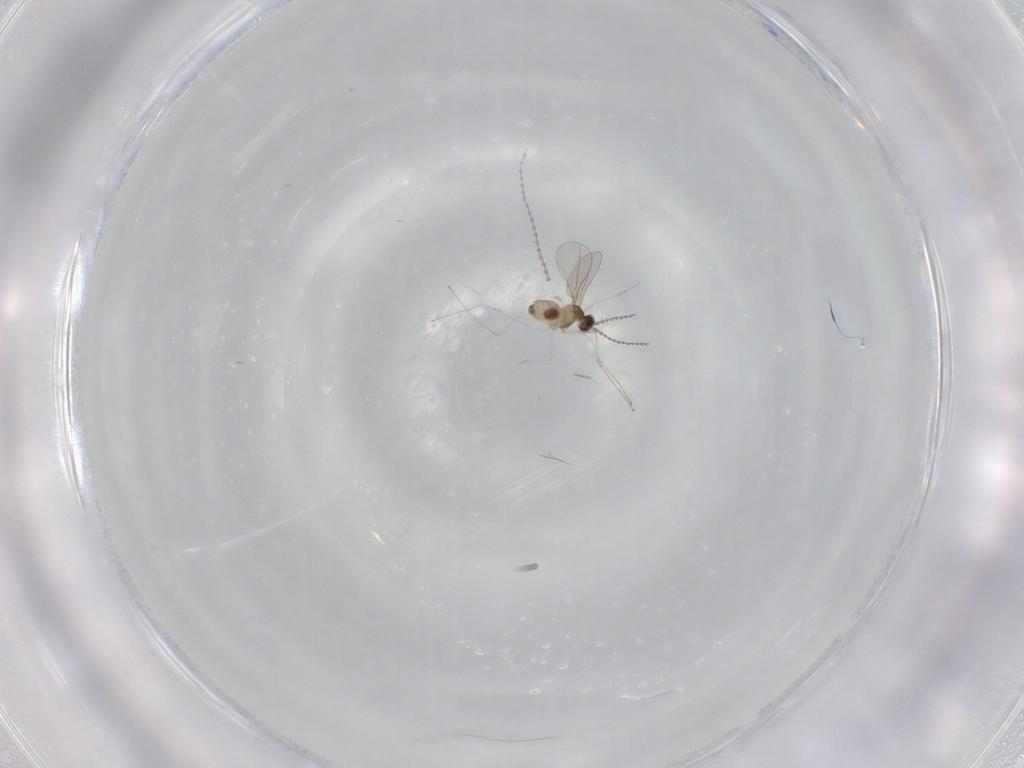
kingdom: Animalia
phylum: Arthropoda
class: Insecta
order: Diptera
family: Cecidomyiidae
